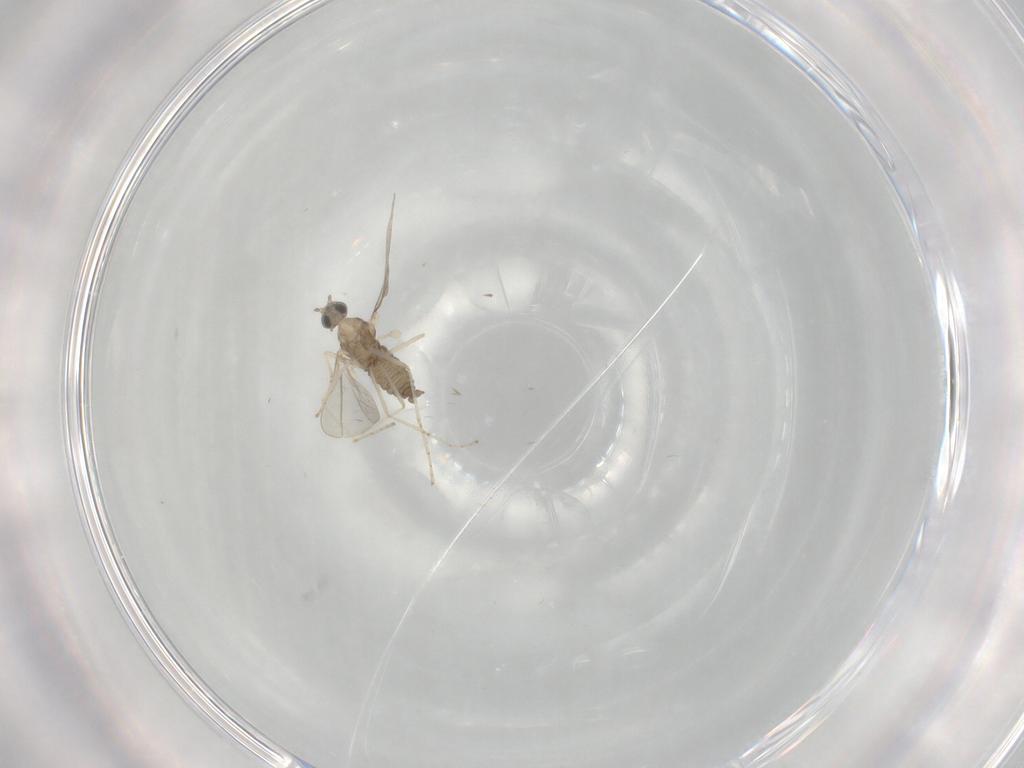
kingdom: Animalia
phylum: Arthropoda
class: Insecta
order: Diptera
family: Cecidomyiidae
